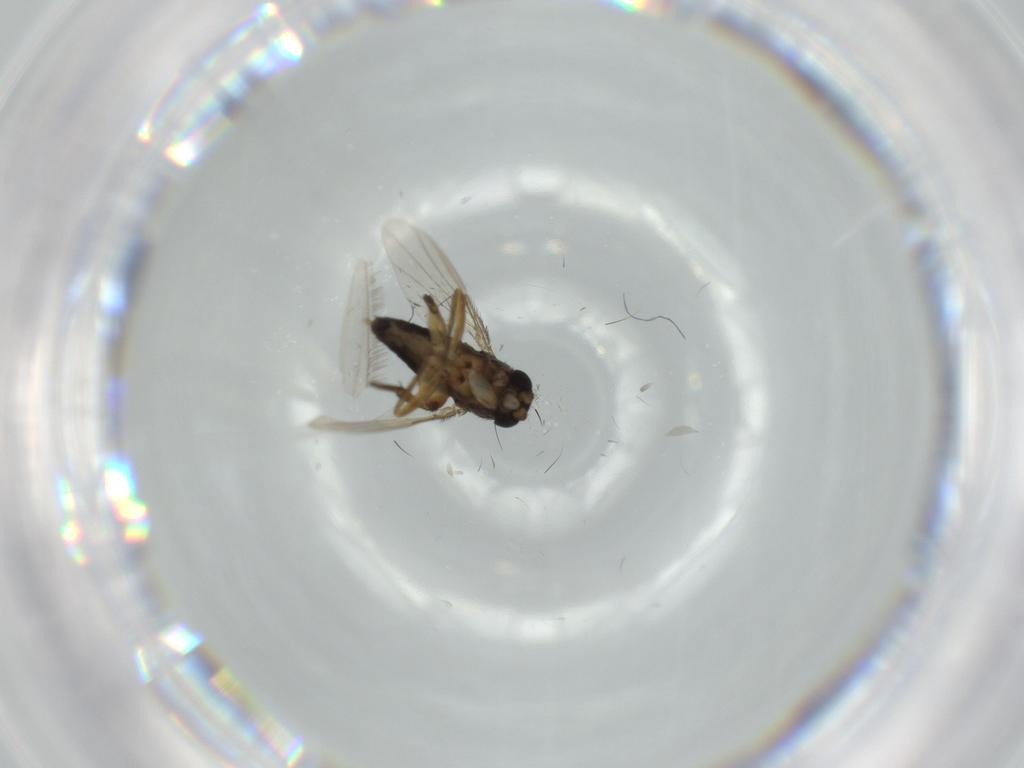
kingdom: Animalia
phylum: Arthropoda
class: Insecta
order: Diptera
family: Culicidae
